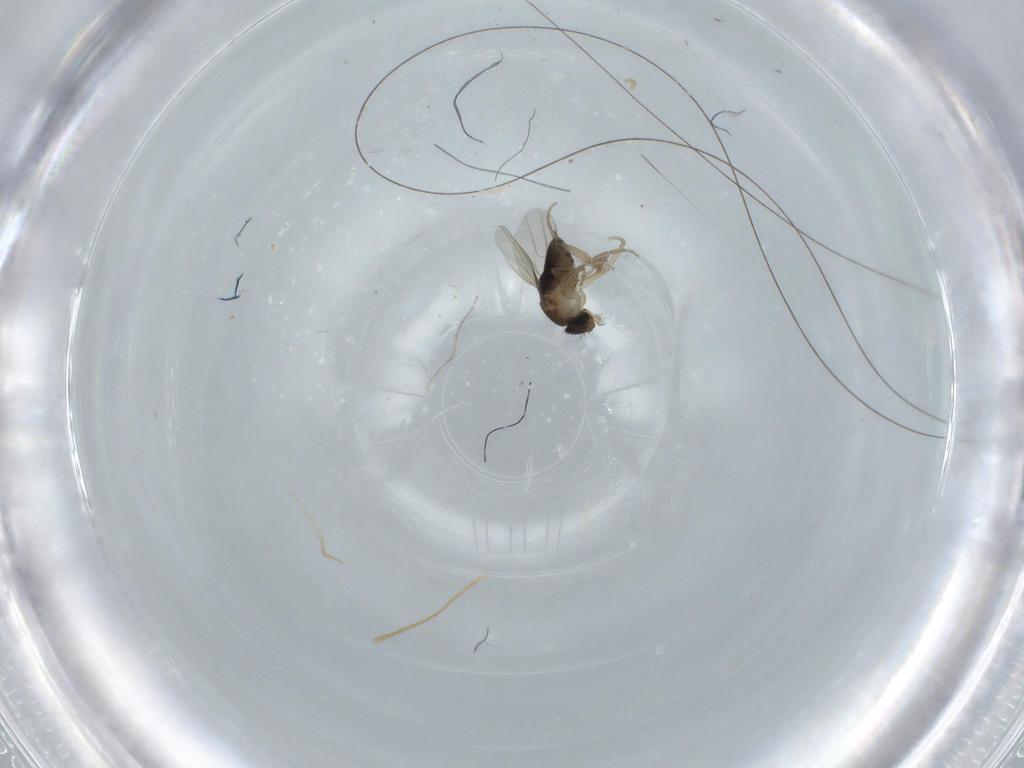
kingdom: Animalia
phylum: Arthropoda
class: Insecta
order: Diptera
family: Phoridae
